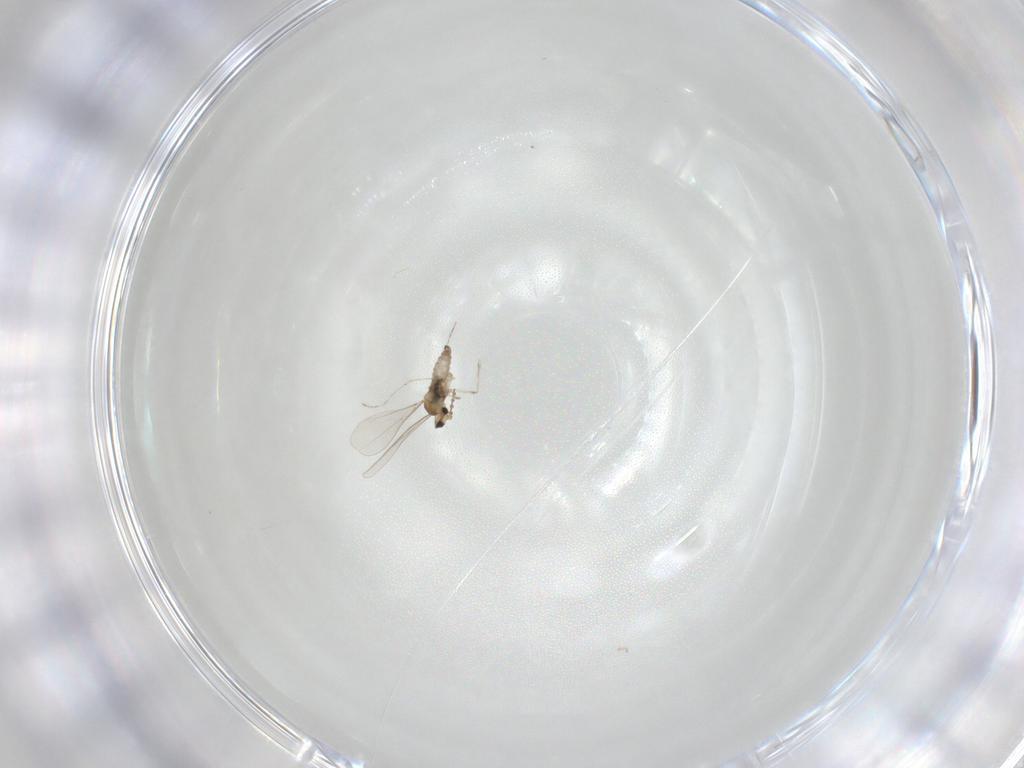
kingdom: Animalia
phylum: Arthropoda
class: Insecta
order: Diptera
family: Cecidomyiidae
